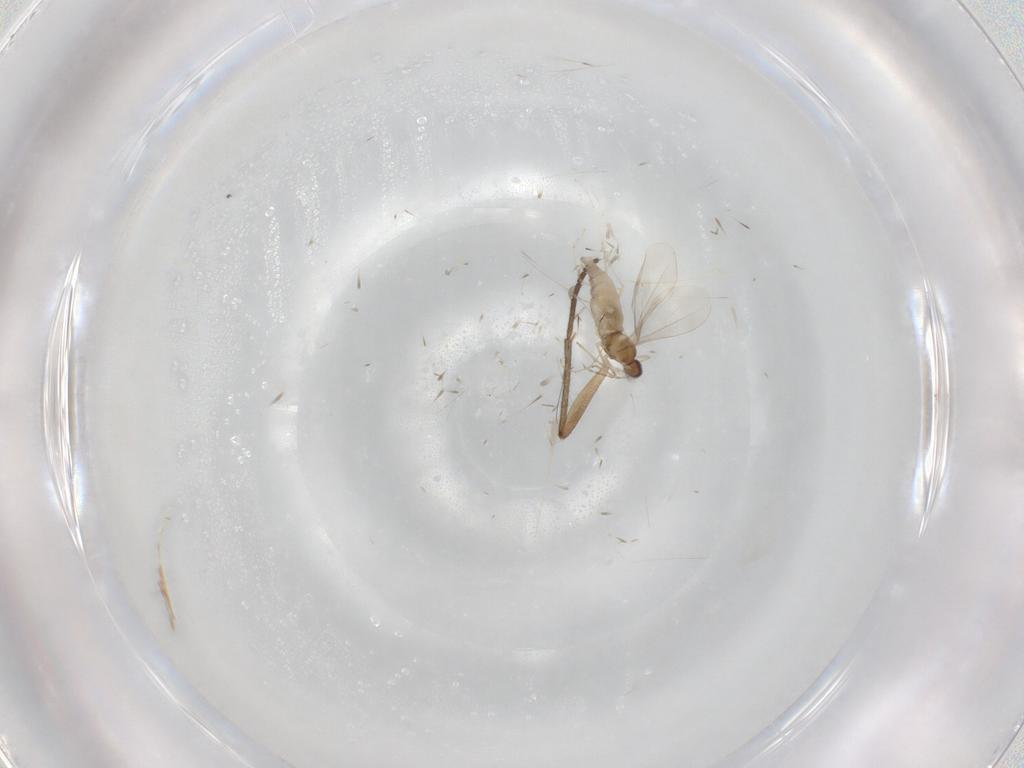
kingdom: Animalia
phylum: Arthropoda
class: Insecta
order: Diptera
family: Cecidomyiidae
